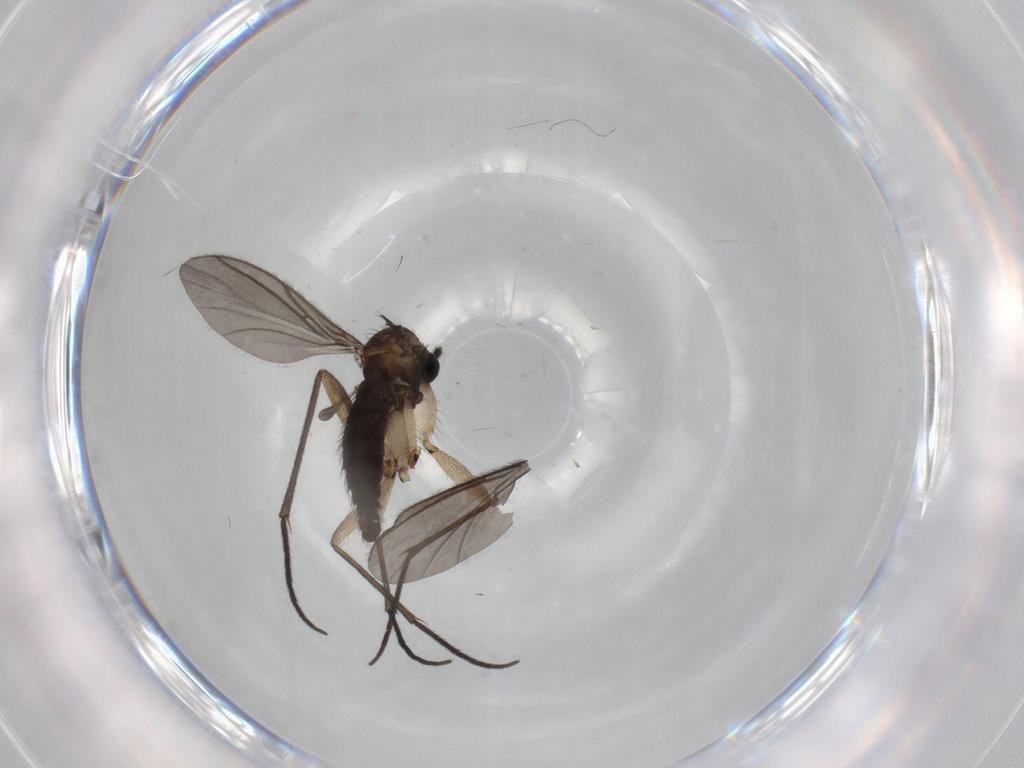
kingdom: Animalia
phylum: Arthropoda
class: Insecta
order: Diptera
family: Sciaridae
